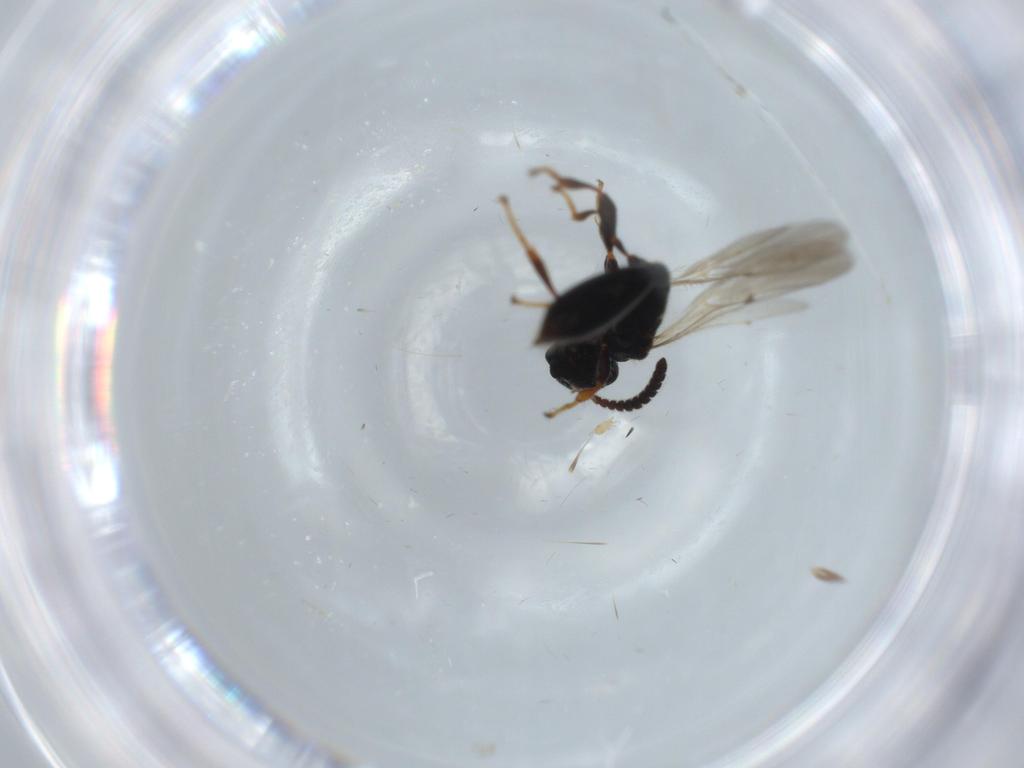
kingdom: Animalia
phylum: Arthropoda
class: Insecta
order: Hymenoptera
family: Diapriidae
